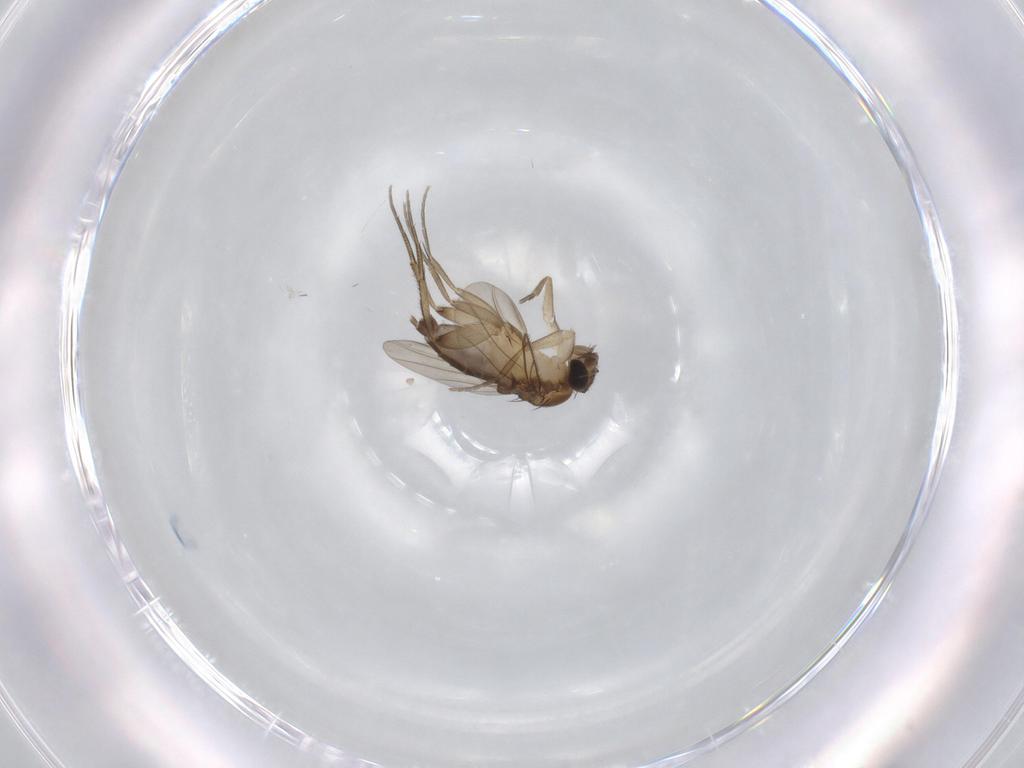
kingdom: Animalia
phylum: Arthropoda
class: Insecta
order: Diptera
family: Phoridae
